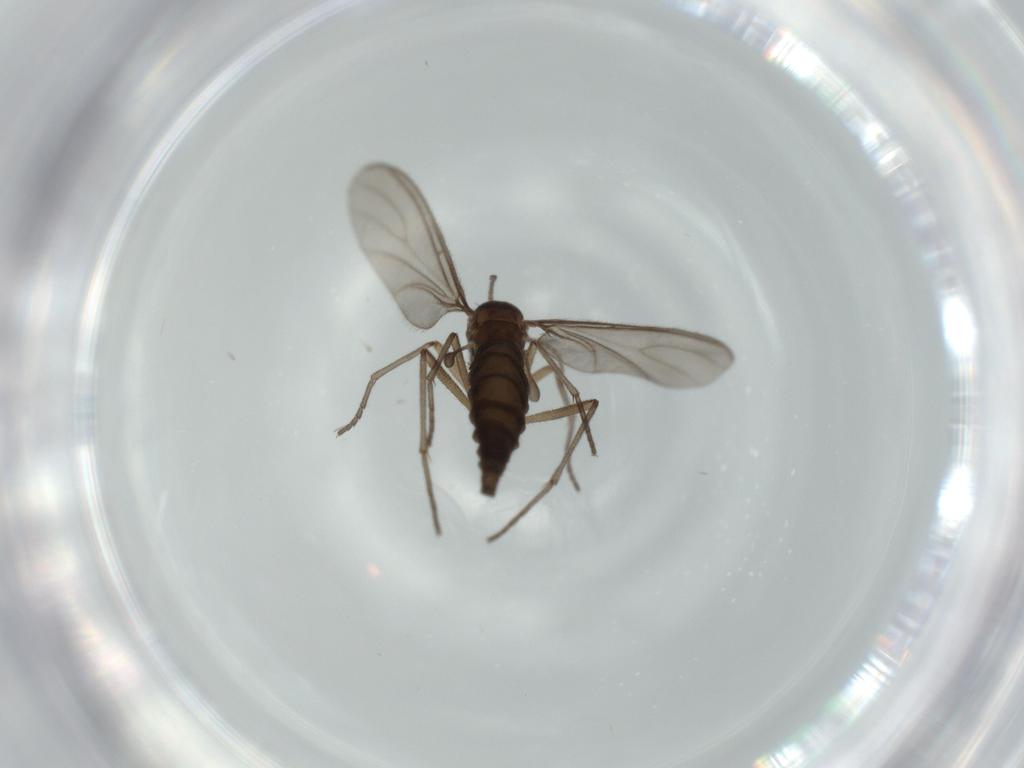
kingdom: Animalia
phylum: Arthropoda
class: Insecta
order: Diptera
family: Sciaridae
